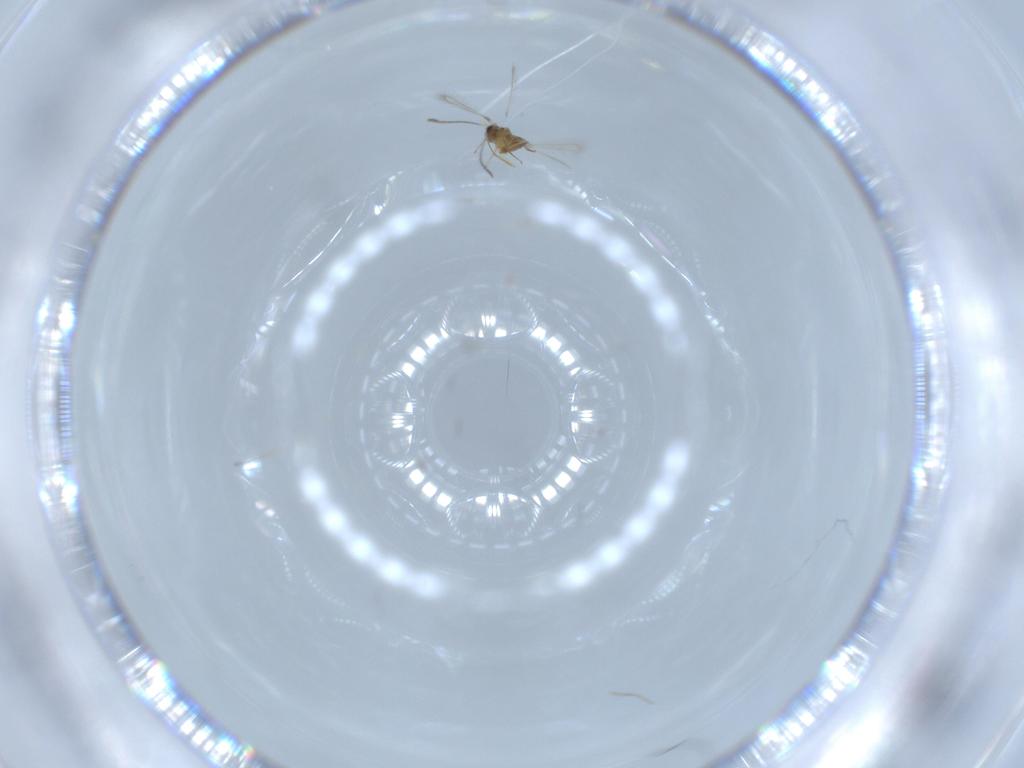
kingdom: Animalia
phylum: Arthropoda
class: Insecta
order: Hymenoptera
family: Mymaridae
